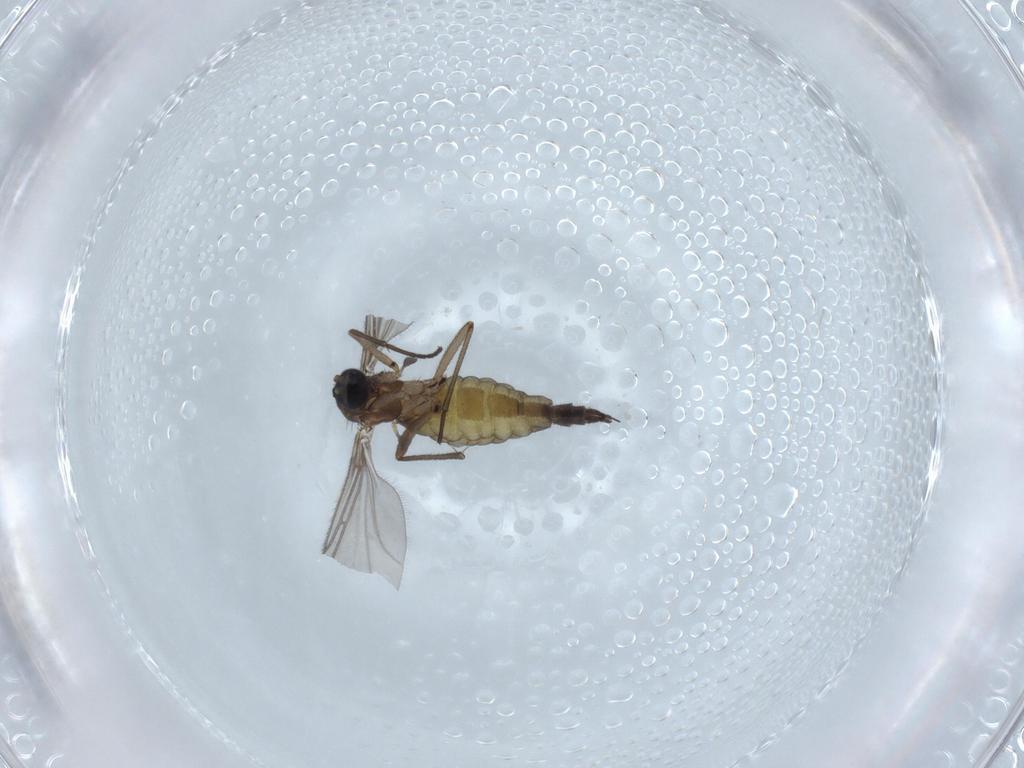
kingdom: Animalia
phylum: Arthropoda
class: Insecta
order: Diptera
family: Sciaridae
